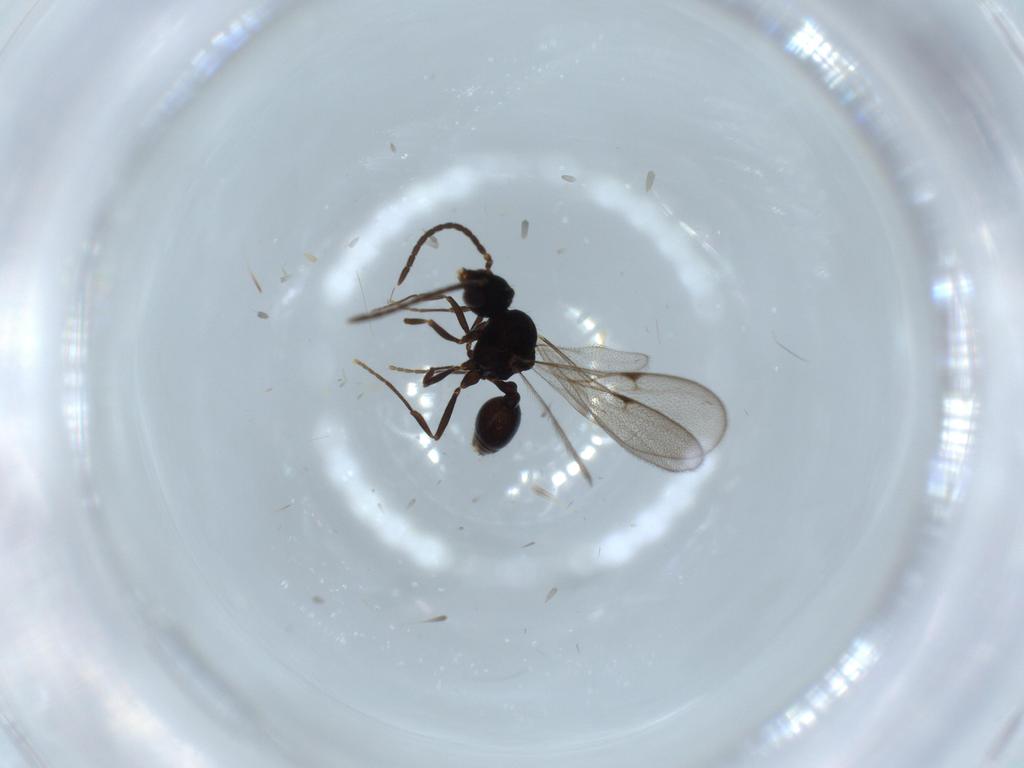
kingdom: Animalia
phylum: Arthropoda
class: Insecta
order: Hymenoptera
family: Formicidae
